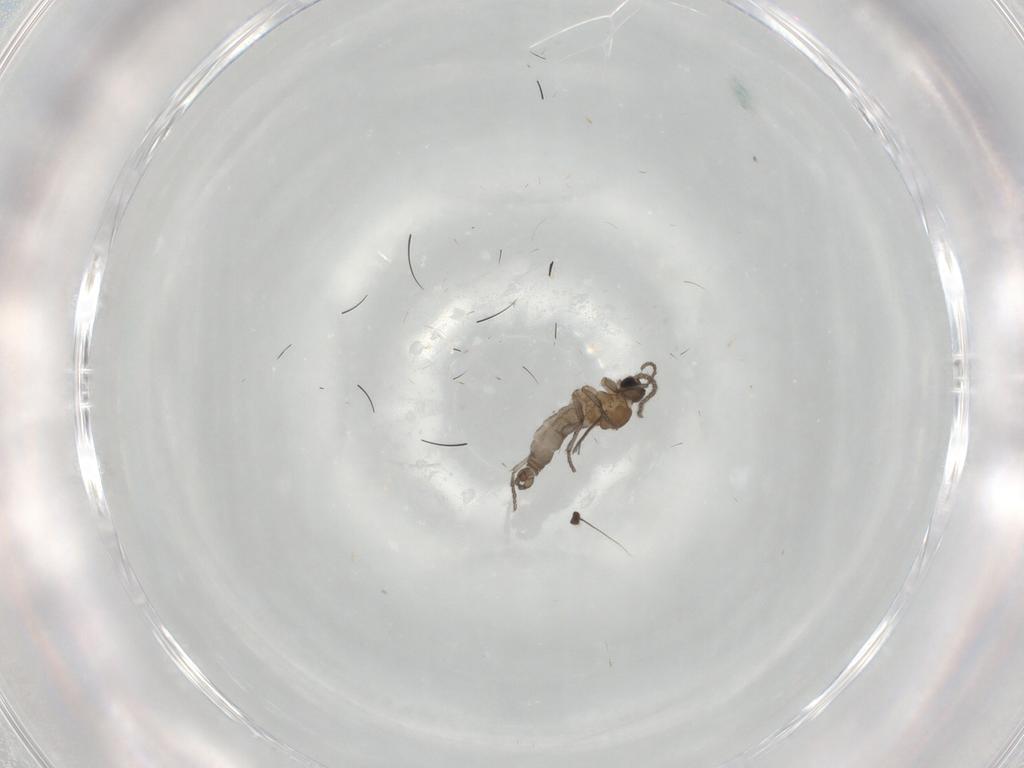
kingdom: Animalia
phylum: Arthropoda
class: Insecta
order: Diptera
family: Sciaridae
